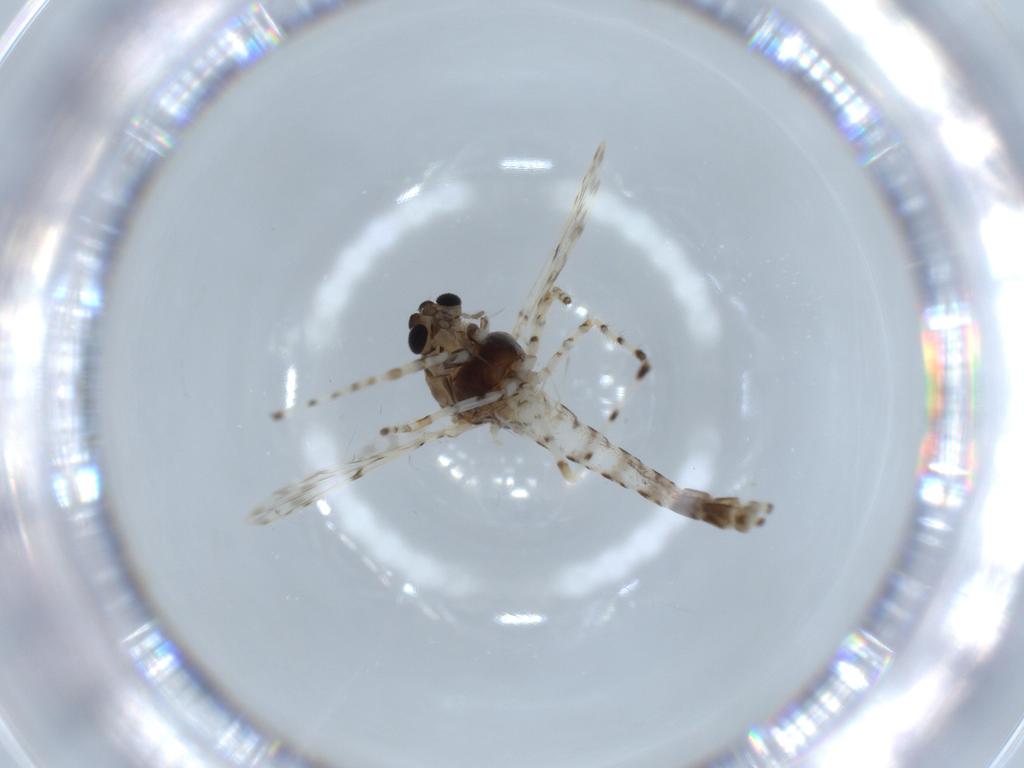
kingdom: Animalia
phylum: Arthropoda
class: Insecta
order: Diptera
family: Chironomidae
